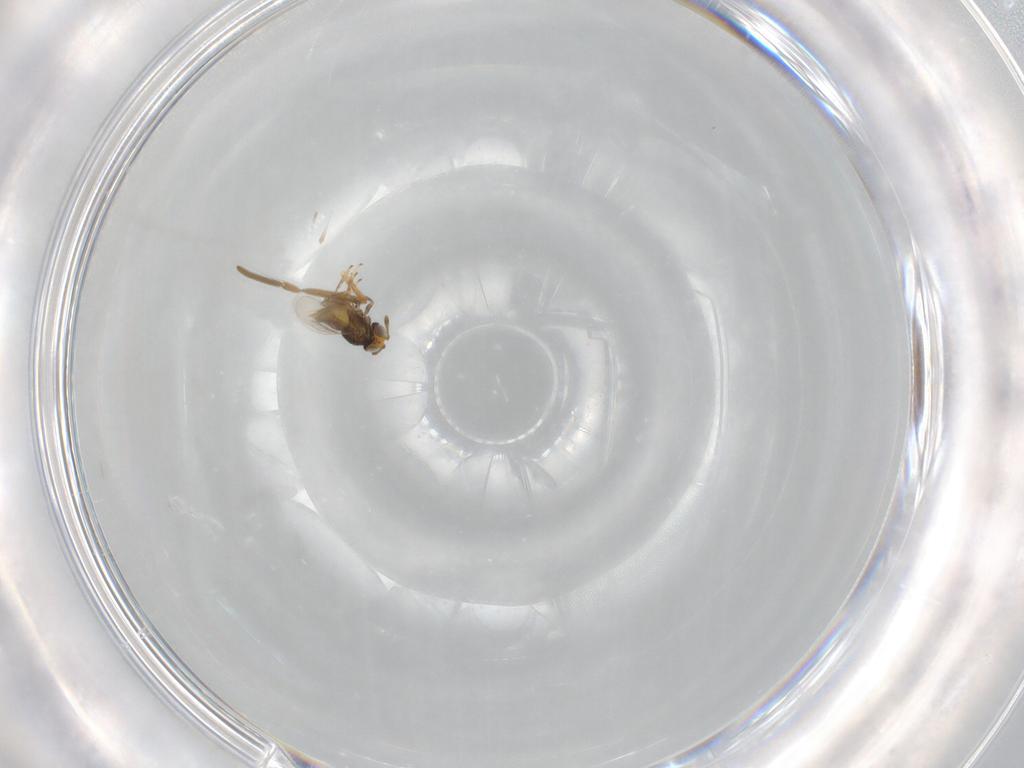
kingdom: Animalia
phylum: Arthropoda
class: Insecta
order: Hymenoptera
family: Encyrtidae
